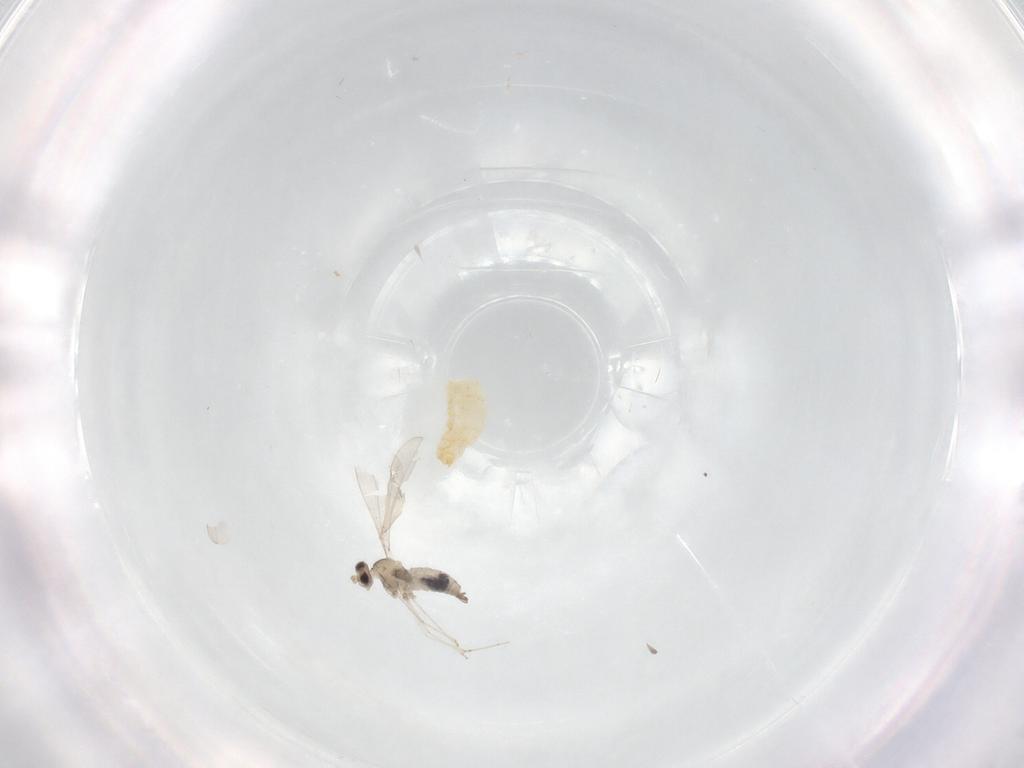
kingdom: Animalia
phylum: Arthropoda
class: Insecta
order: Diptera
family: Cecidomyiidae
